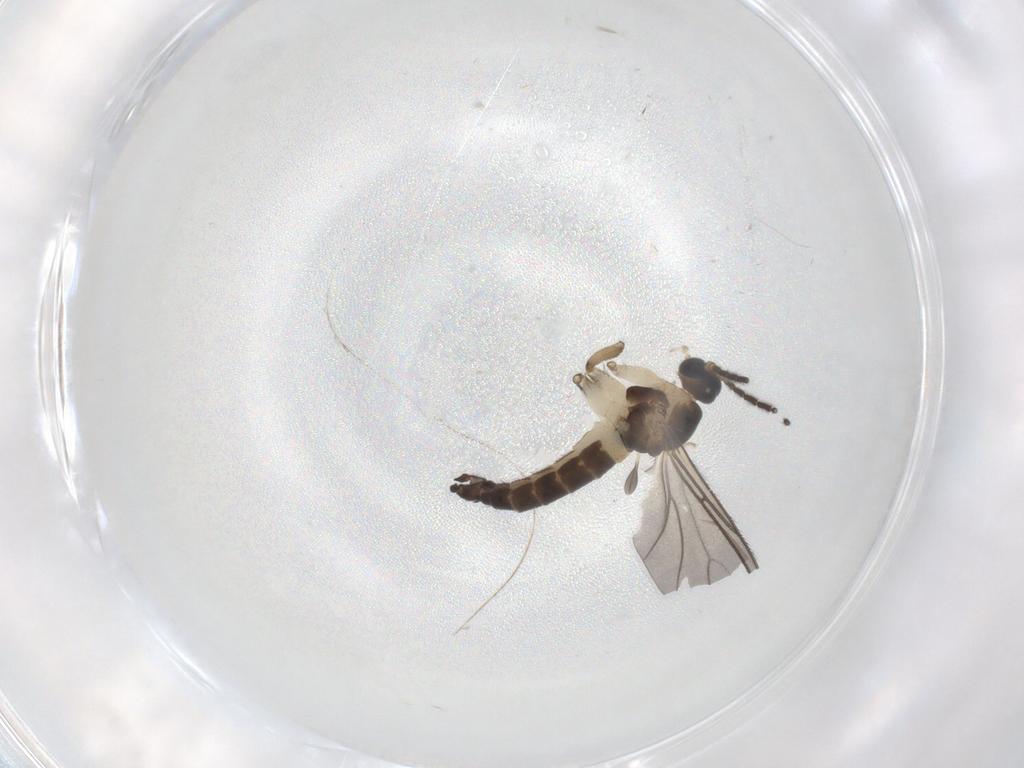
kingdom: Animalia
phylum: Arthropoda
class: Insecta
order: Diptera
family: Sciaridae
